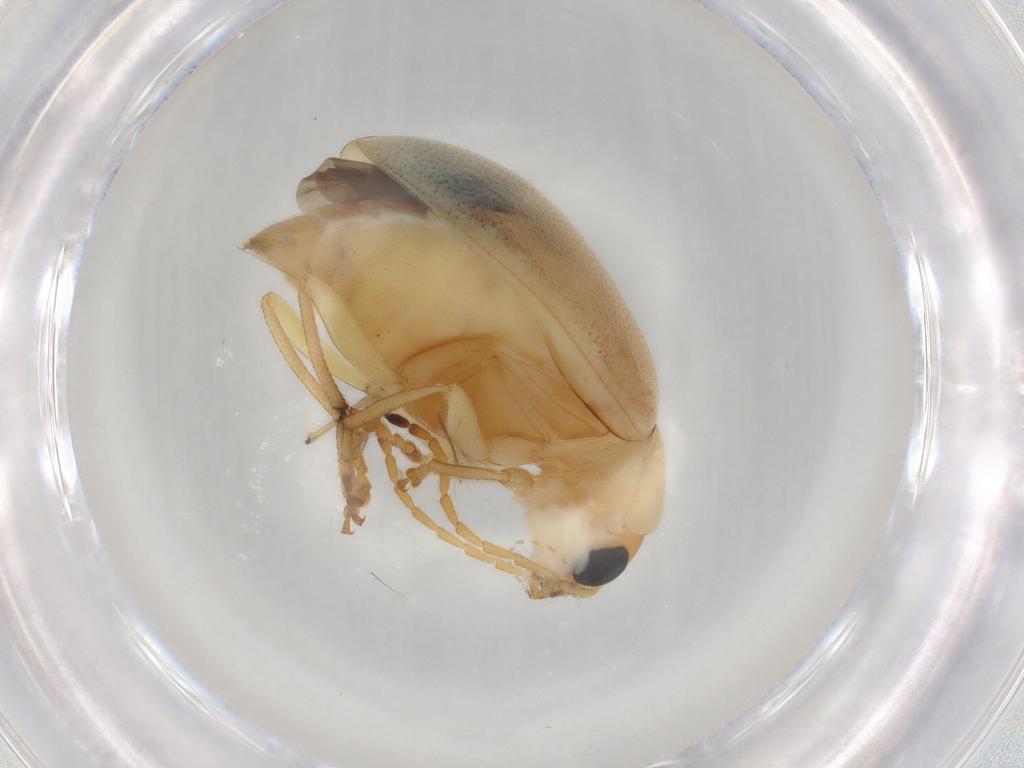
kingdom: Animalia
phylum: Arthropoda
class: Insecta
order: Coleoptera
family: Chrysomelidae
